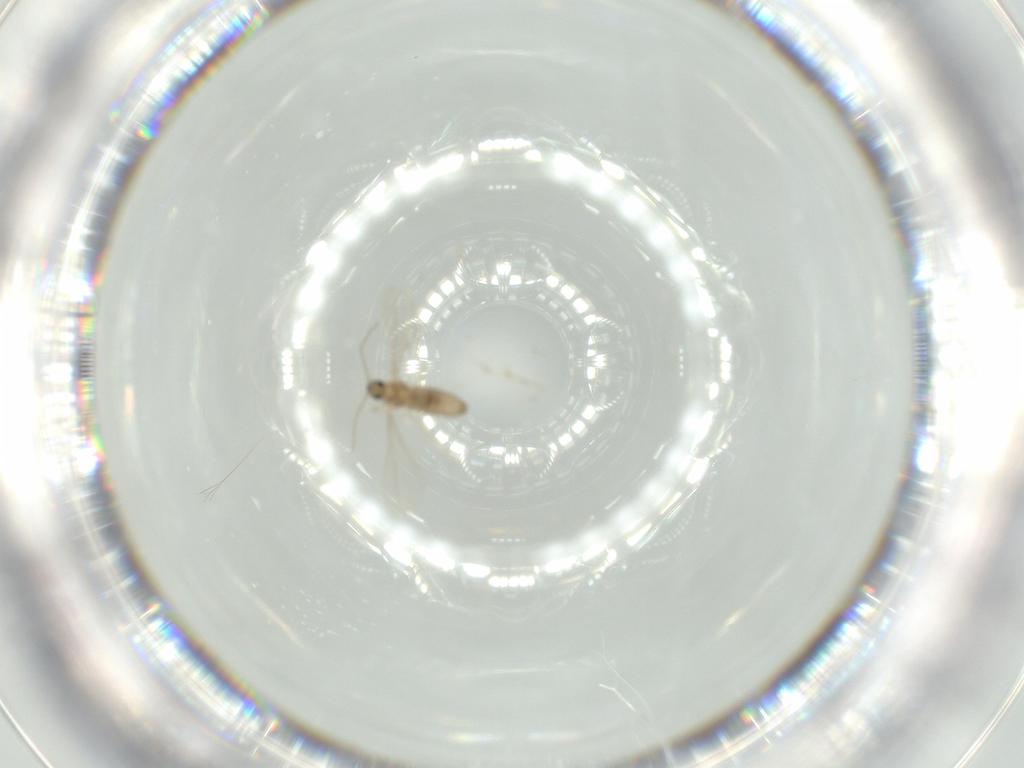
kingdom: Animalia
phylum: Arthropoda
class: Insecta
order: Diptera
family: Cecidomyiidae
